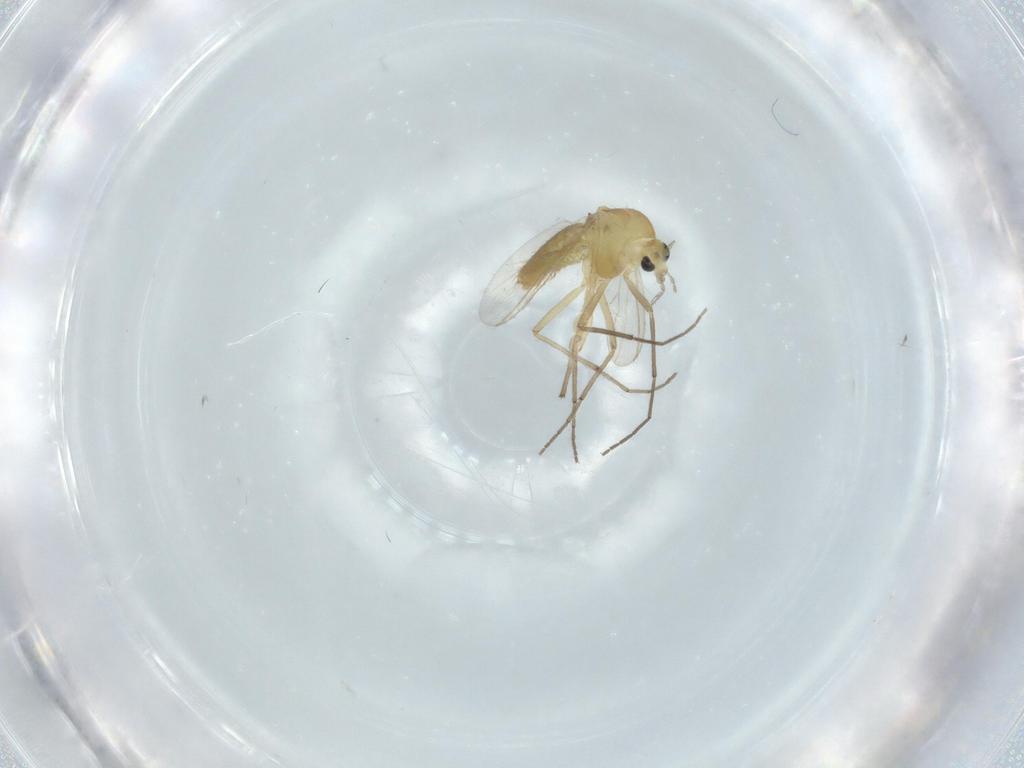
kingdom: Animalia
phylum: Arthropoda
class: Insecta
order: Diptera
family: Chironomidae
